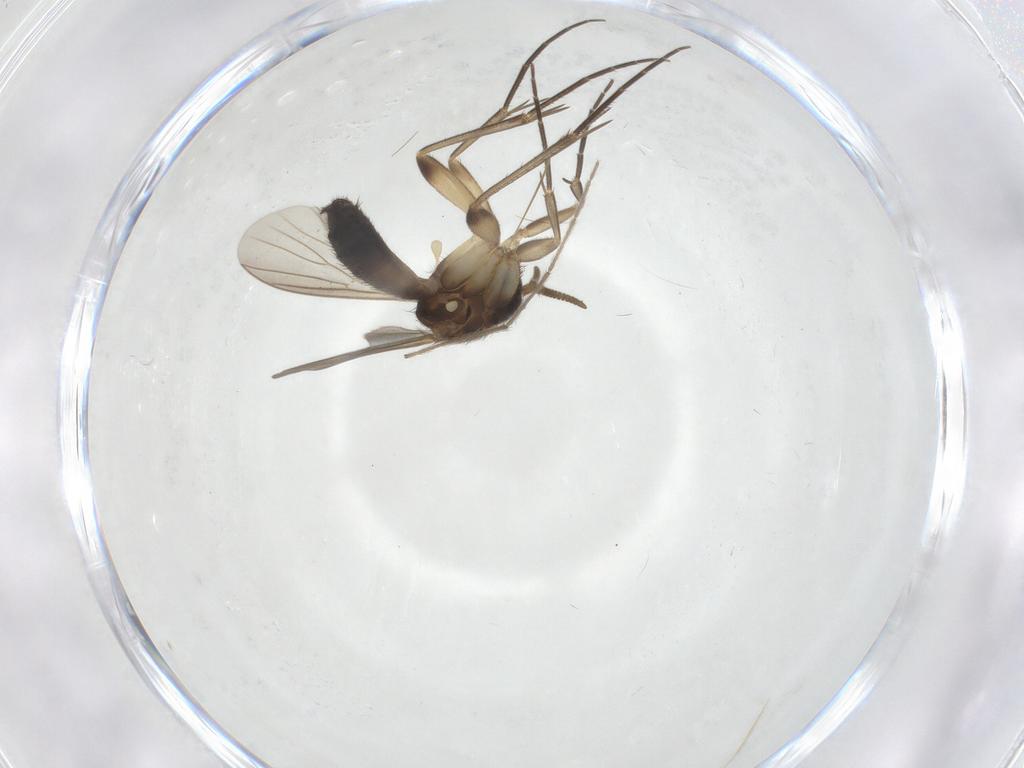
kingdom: Animalia
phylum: Arthropoda
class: Insecta
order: Diptera
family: Mycetophilidae
